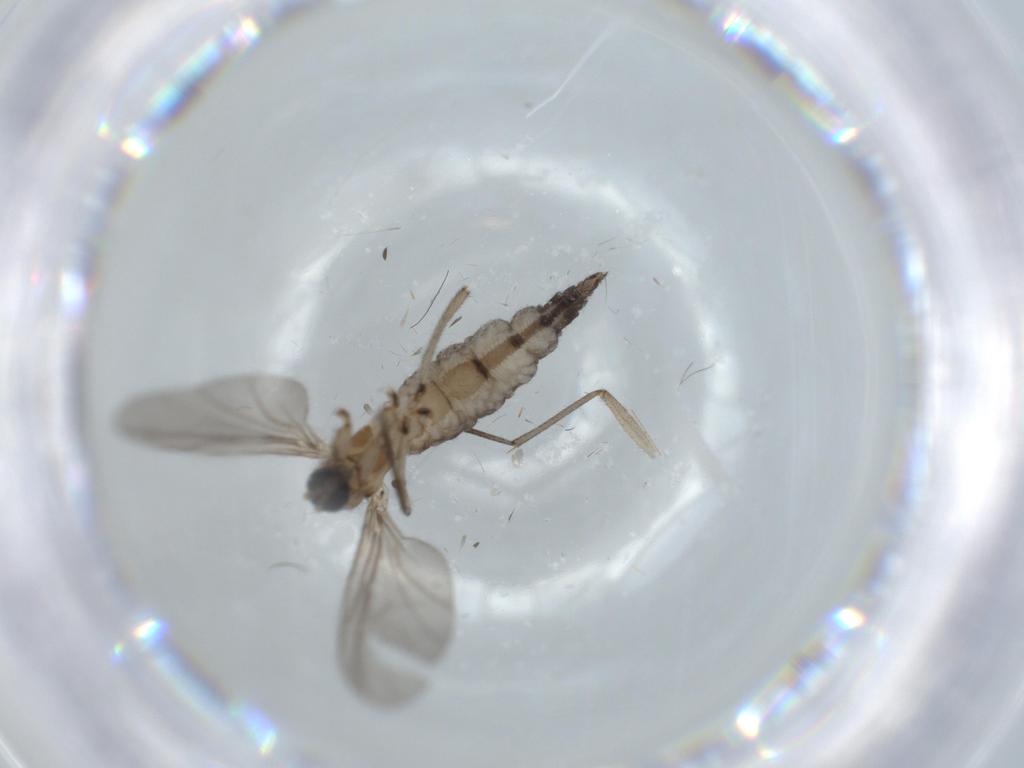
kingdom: Animalia
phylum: Arthropoda
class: Insecta
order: Diptera
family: Sciaridae
